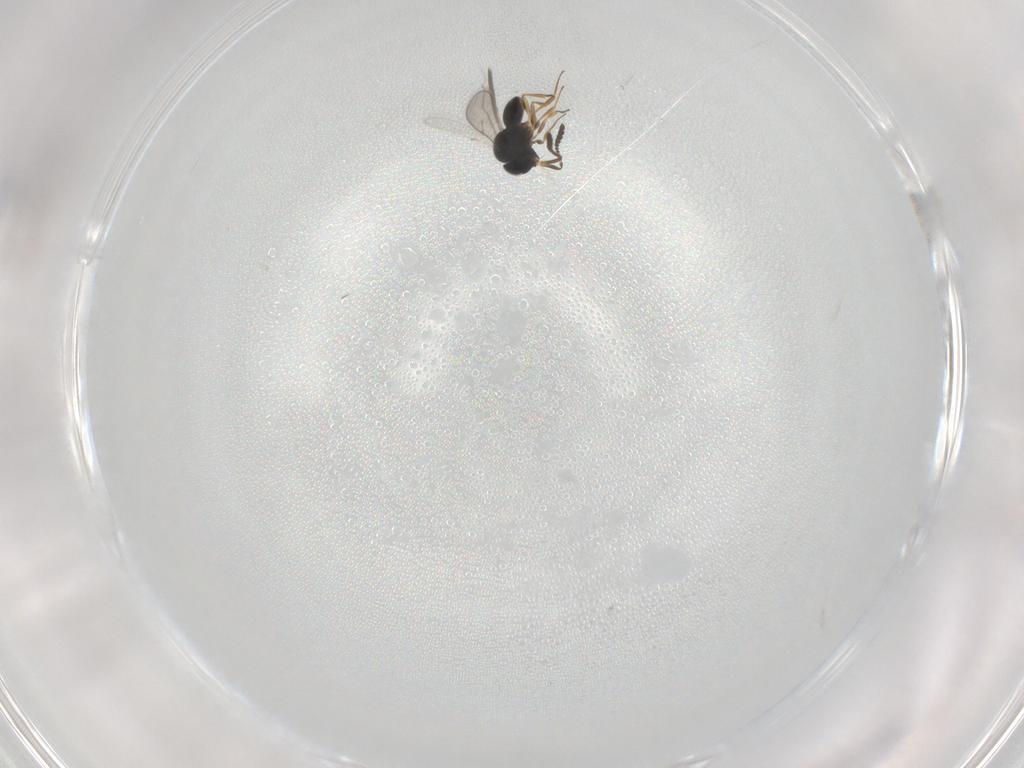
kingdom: Animalia
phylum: Arthropoda
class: Insecta
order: Hymenoptera
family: Scelionidae
